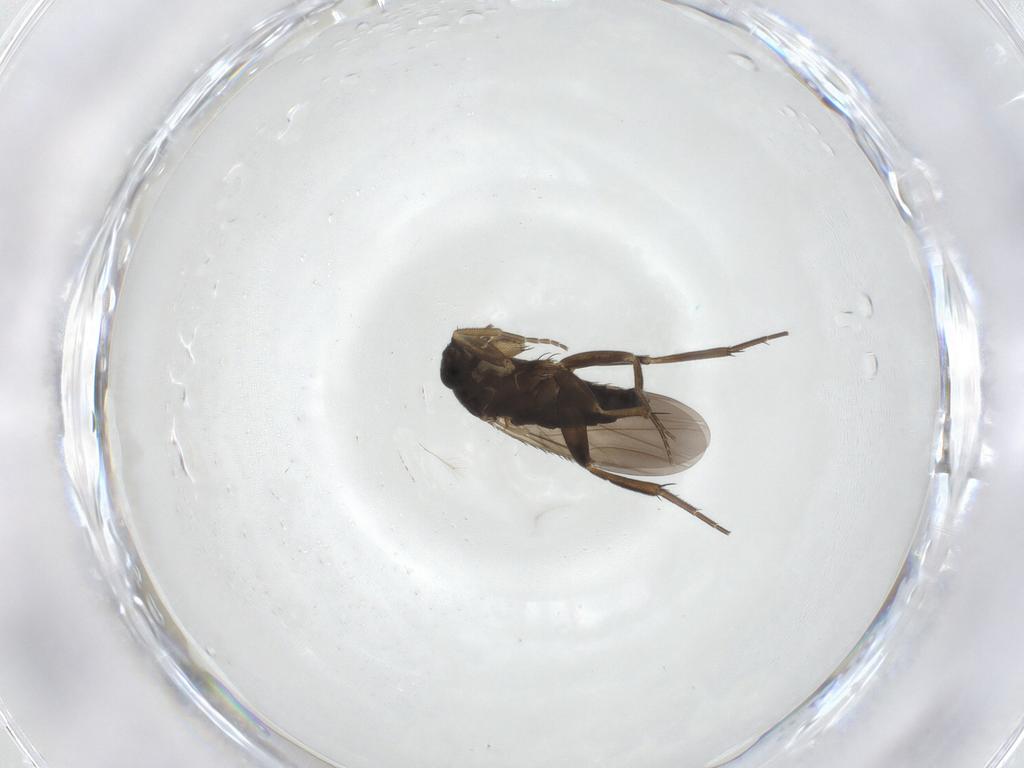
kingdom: Animalia
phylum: Arthropoda
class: Insecta
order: Diptera
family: Phoridae
